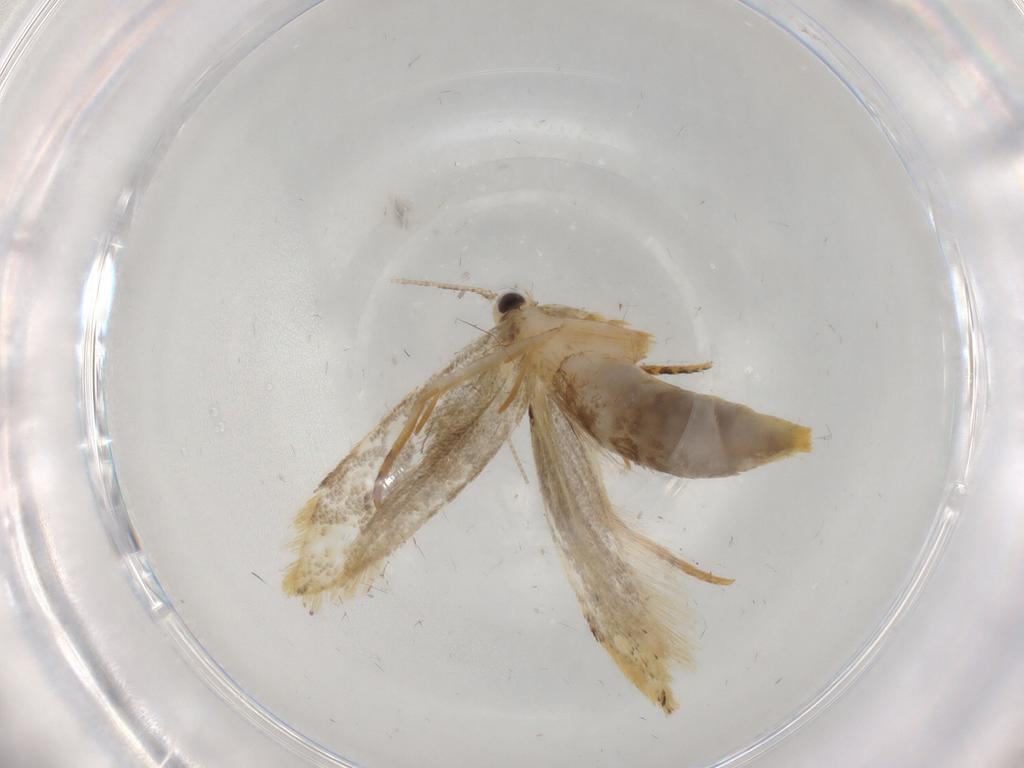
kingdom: Animalia
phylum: Arthropoda
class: Insecta
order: Lepidoptera
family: Tineidae
